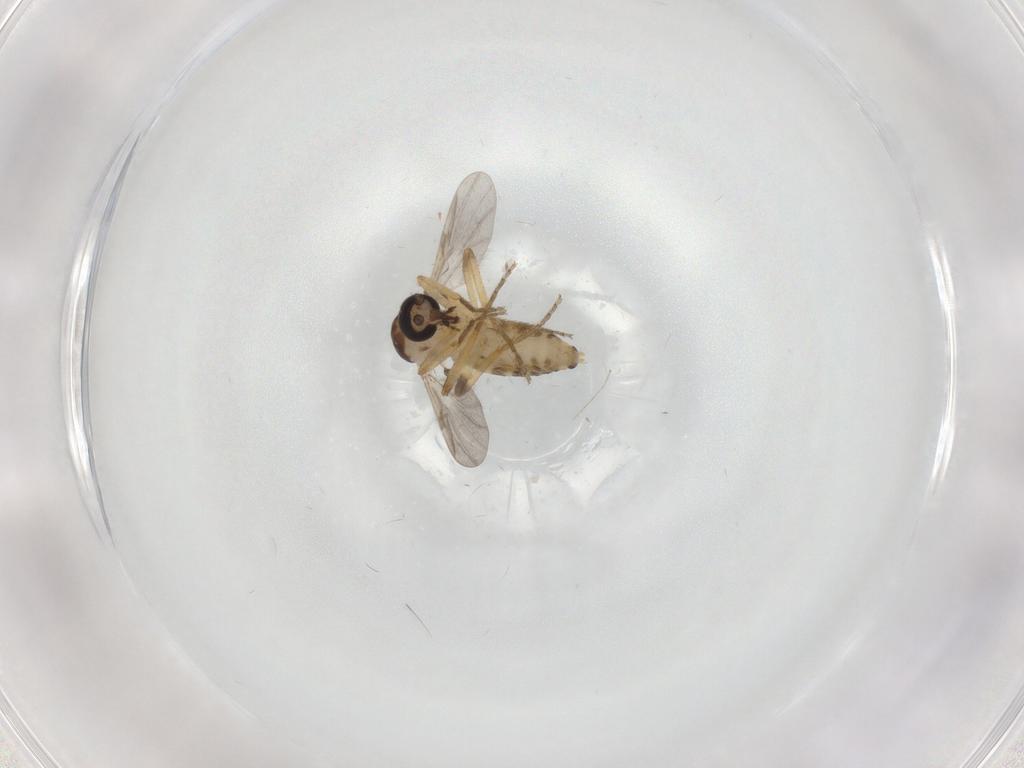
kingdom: Animalia
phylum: Arthropoda
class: Insecta
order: Diptera
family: Ceratopogonidae
